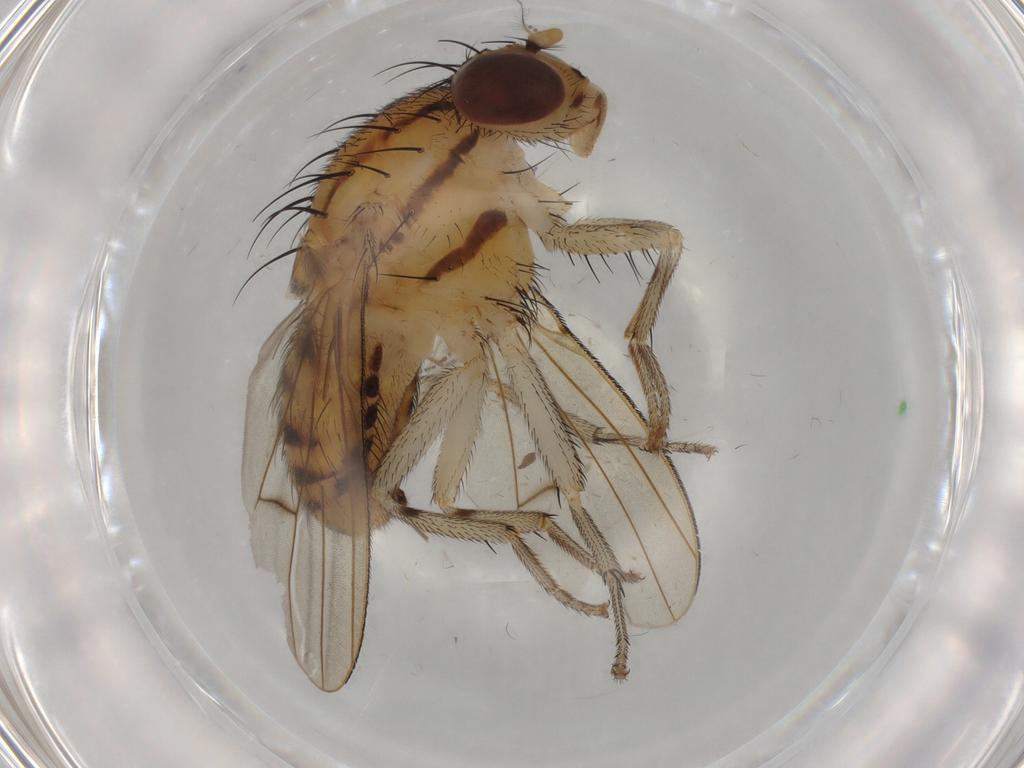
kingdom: Animalia
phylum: Arthropoda
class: Insecta
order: Diptera
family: Lauxaniidae
